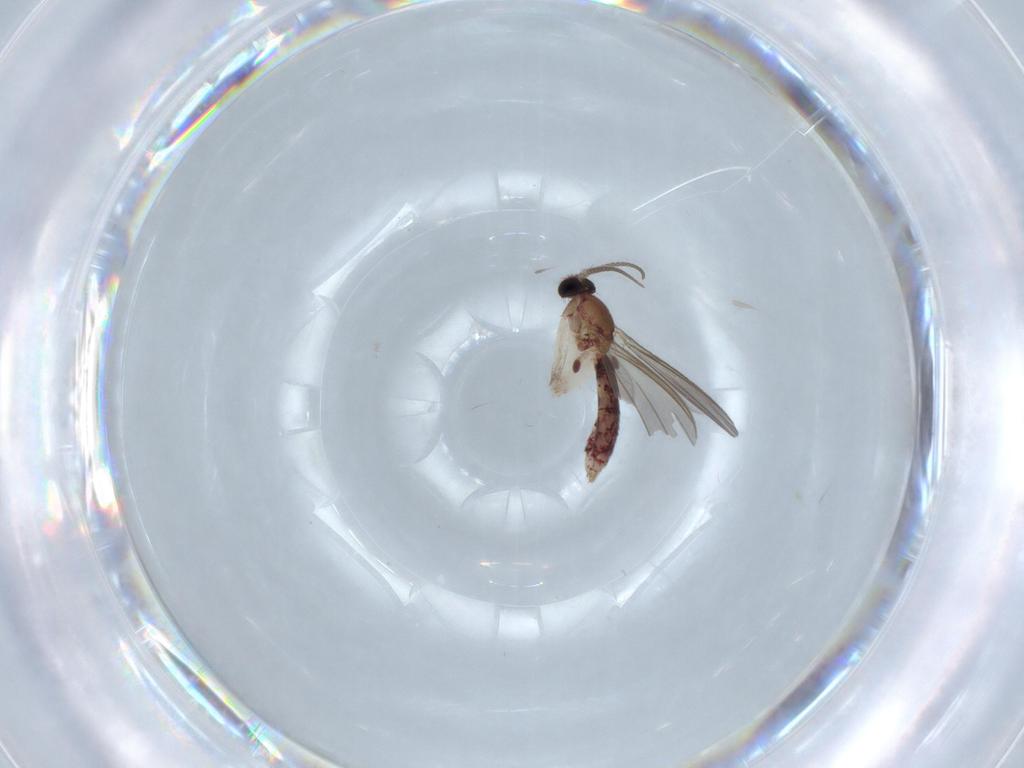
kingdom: Animalia
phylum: Arthropoda
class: Insecta
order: Diptera
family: Mycetophilidae
